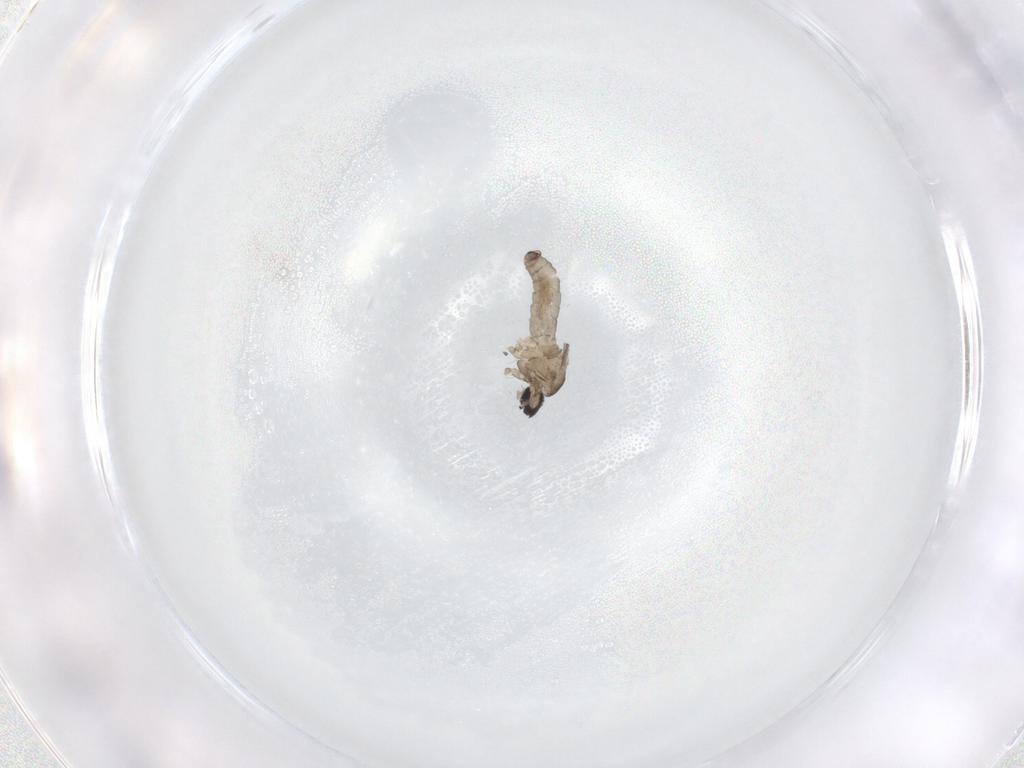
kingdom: Animalia
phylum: Arthropoda
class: Insecta
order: Diptera
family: Cecidomyiidae
